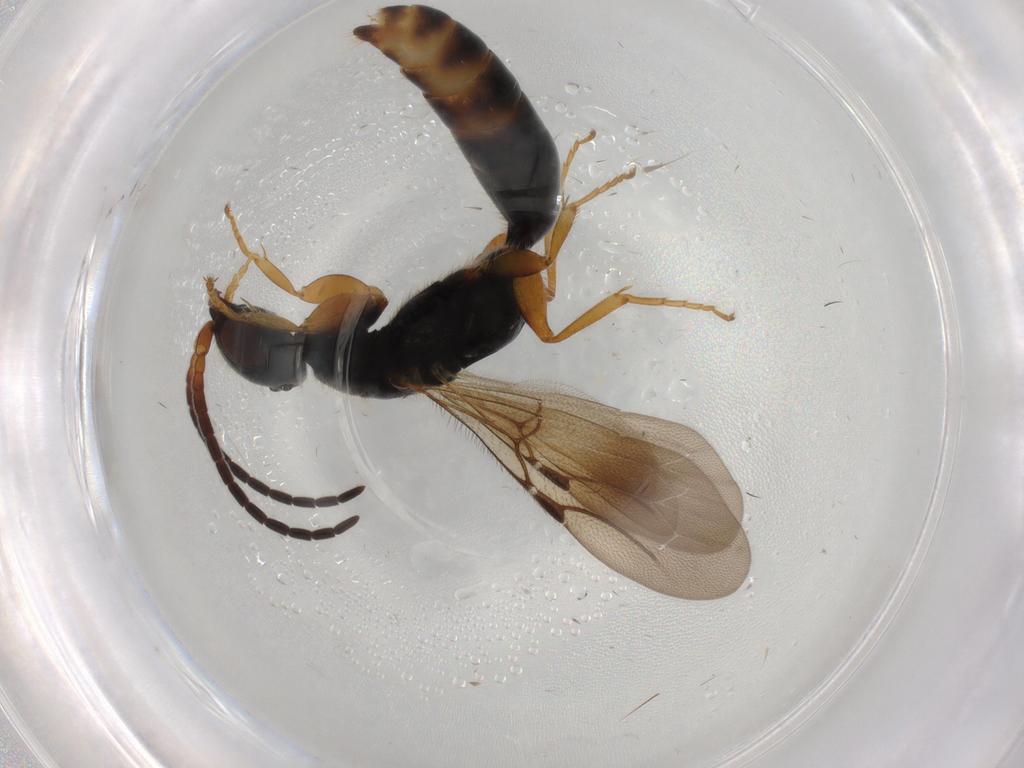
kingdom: Animalia
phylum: Arthropoda
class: Insecta
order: Hymenoptera
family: Bethylidae
